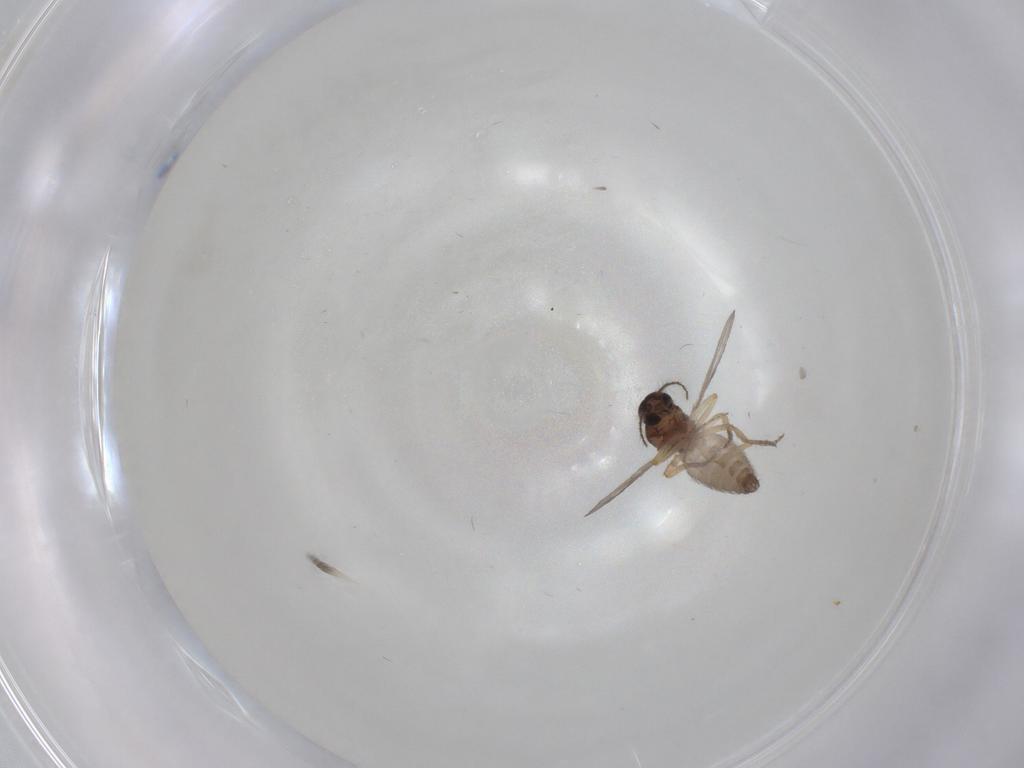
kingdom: Animalia
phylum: Arthropoda
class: Insecta
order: Diptera
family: Ceratopogonidae
